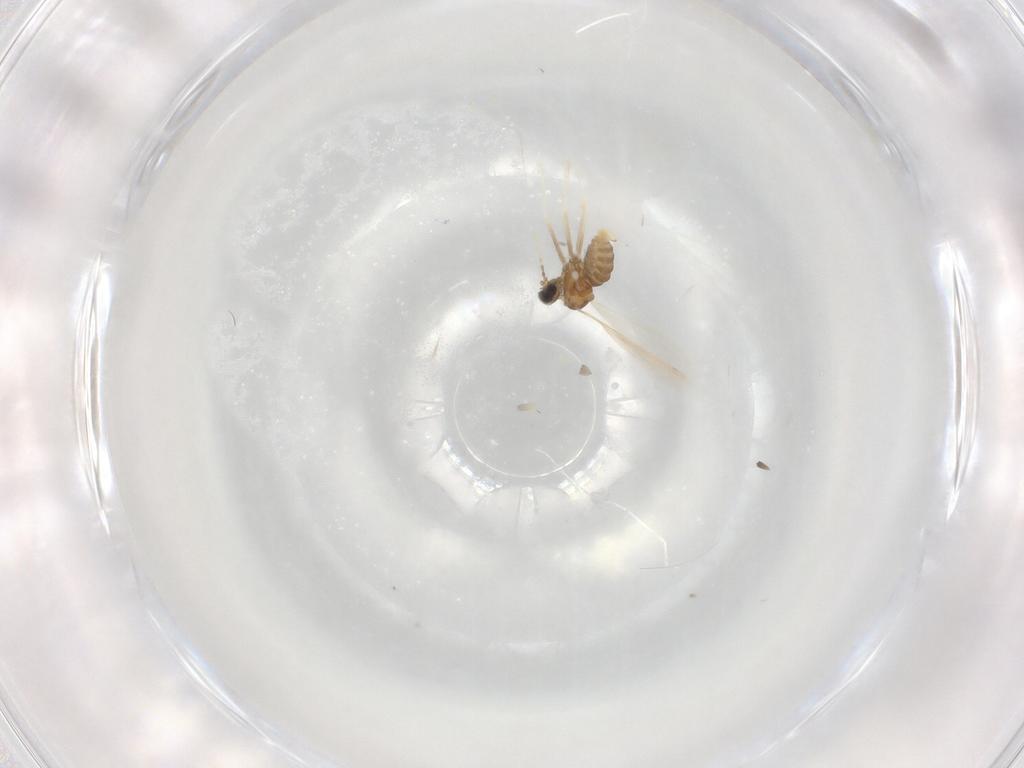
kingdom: Animalia
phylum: Arthropoda
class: Insecta
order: Diptera
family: Cecidomyiidae
